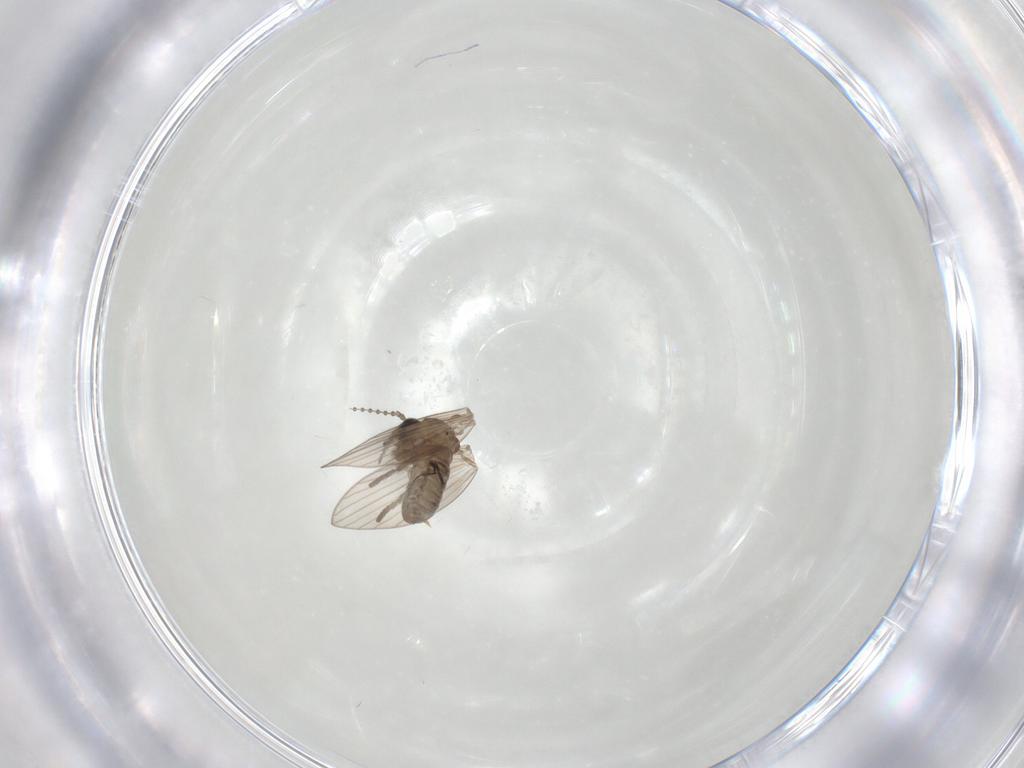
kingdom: Animalia
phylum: Arthropoda
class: Insecta
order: Diptera
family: Psychodidae
